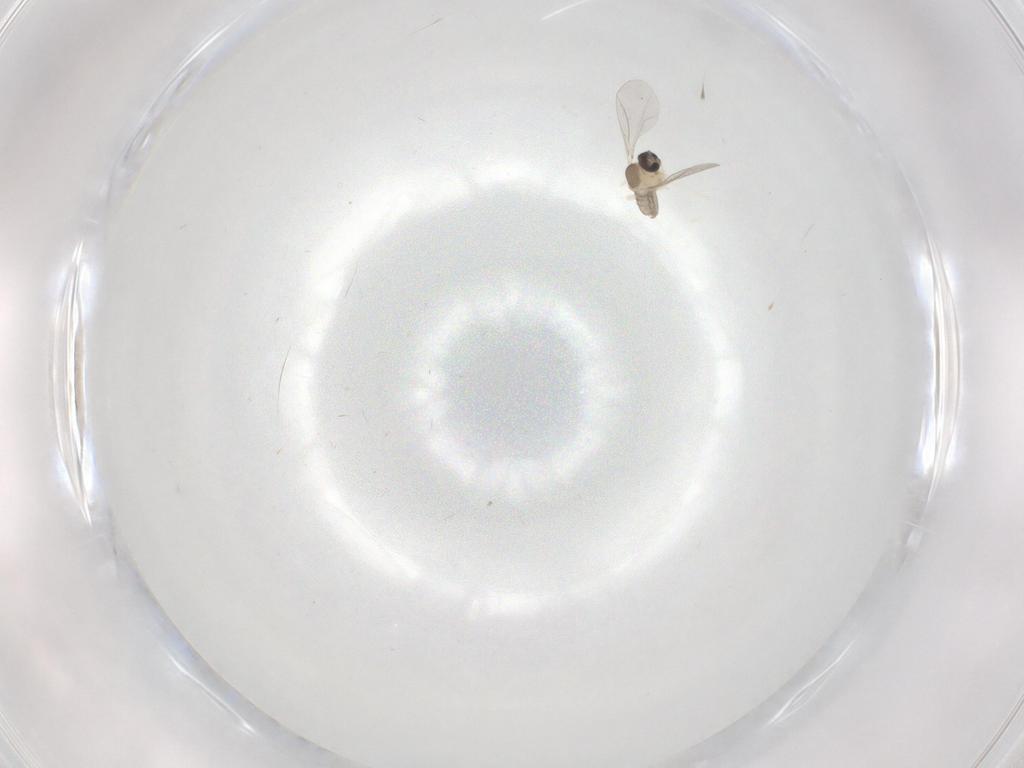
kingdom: Animalia
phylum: Arthropoda
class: Insecta
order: Diptera
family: Cecidomyiidae
